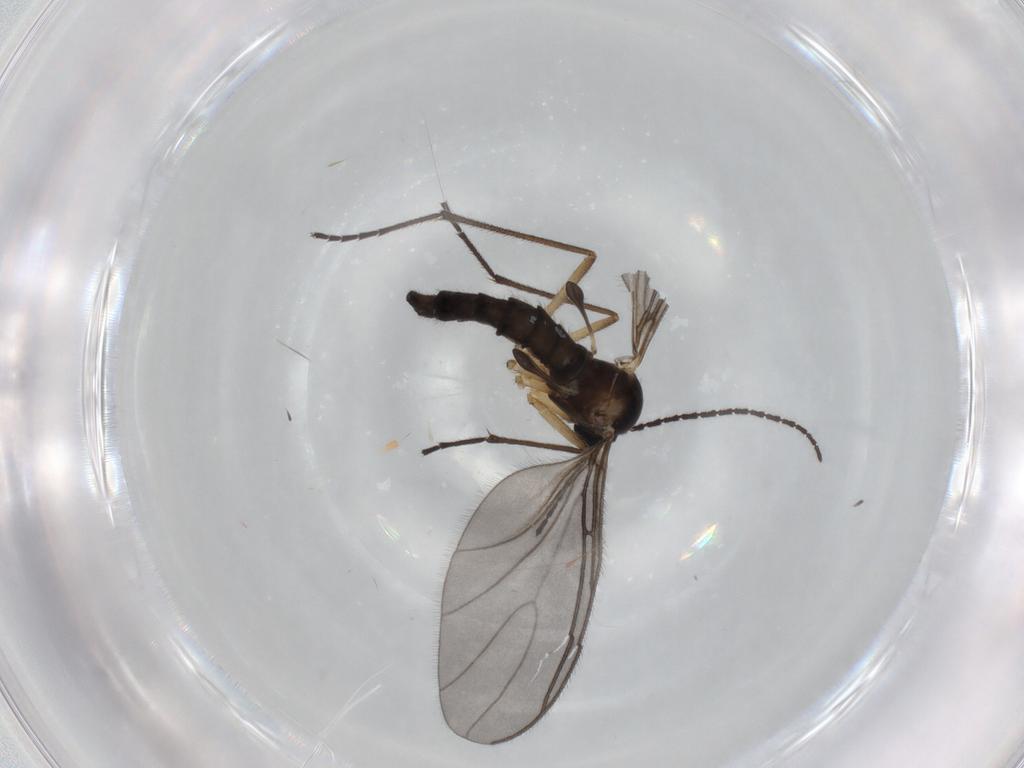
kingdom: Animalia
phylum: Arthropoda
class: Insecta
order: Diptera
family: Sciaridae
